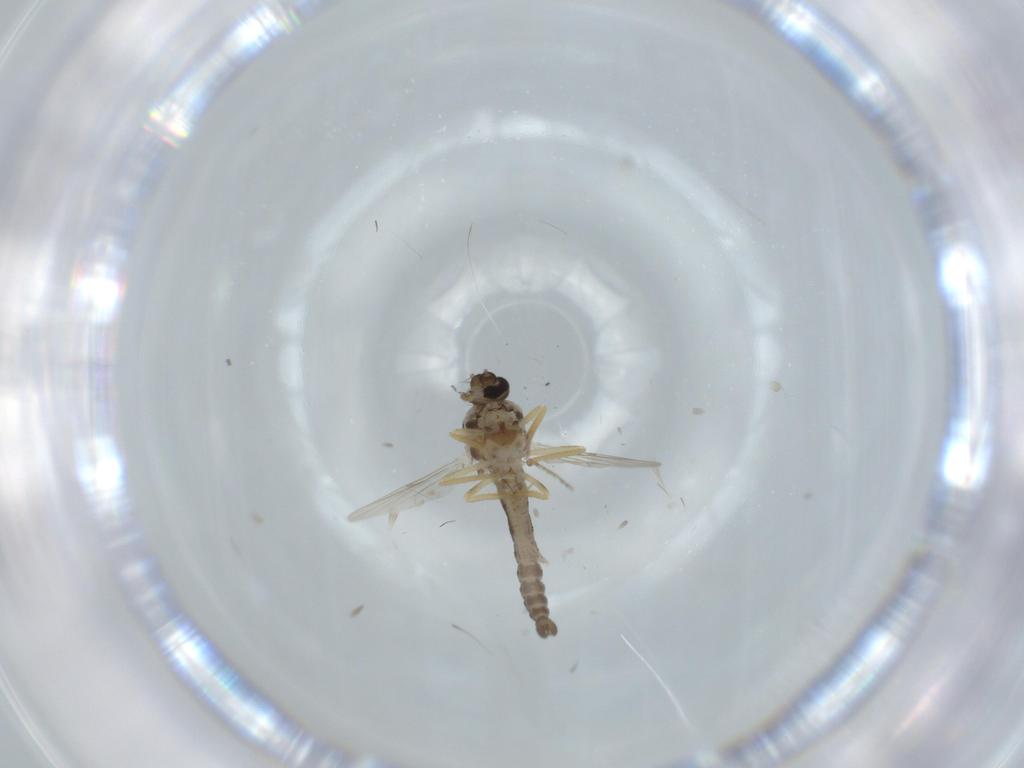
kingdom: Animalia
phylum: Arthropoda
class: Insecta
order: Diptera
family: Ceratopogonidae
